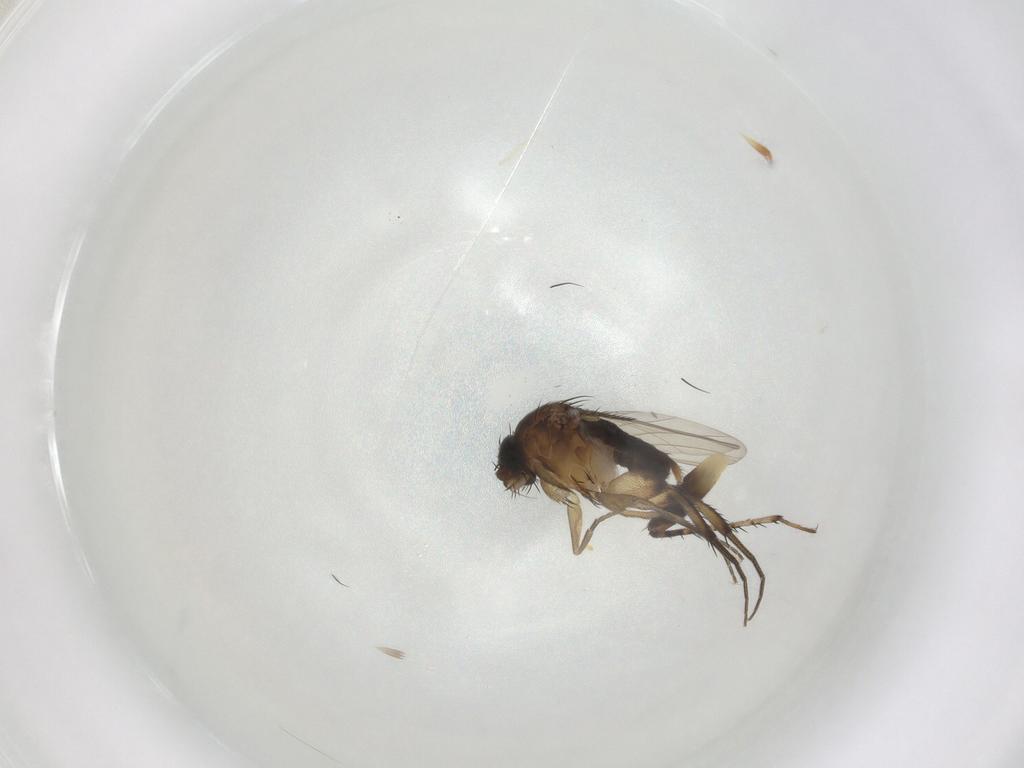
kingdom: Animalia
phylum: Arthropoda
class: Insecta
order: Diptera
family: Phoridae
